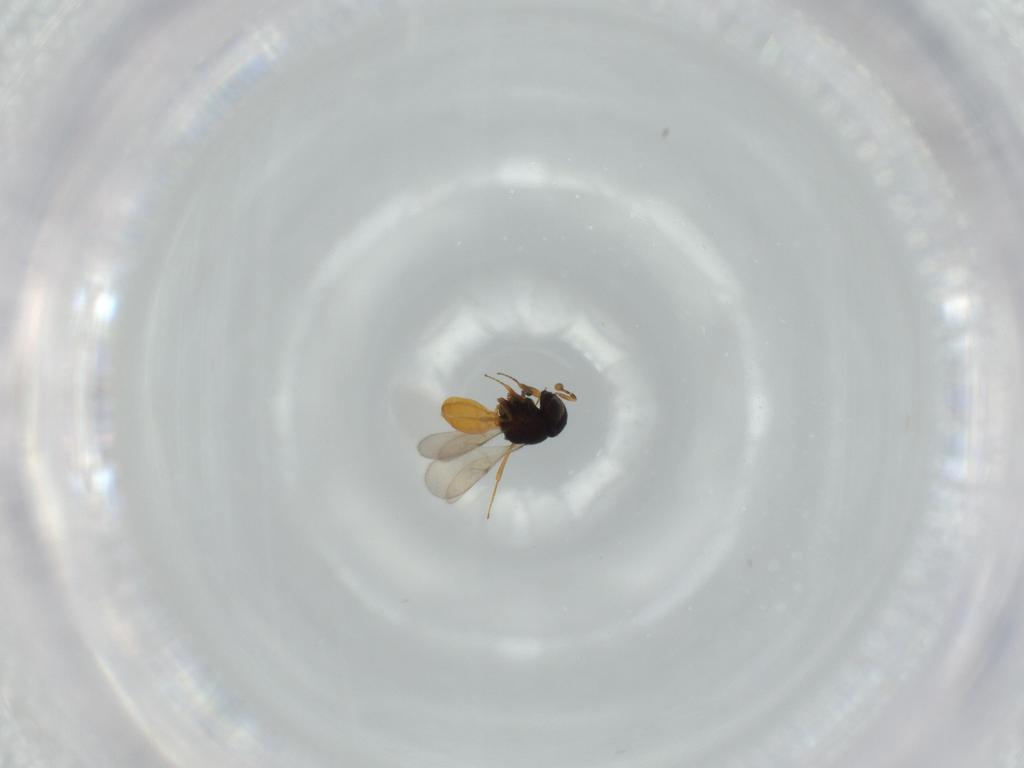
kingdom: Animalia
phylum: Arthropoda
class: Insecta
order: Hymenoptera
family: Scelionidae
